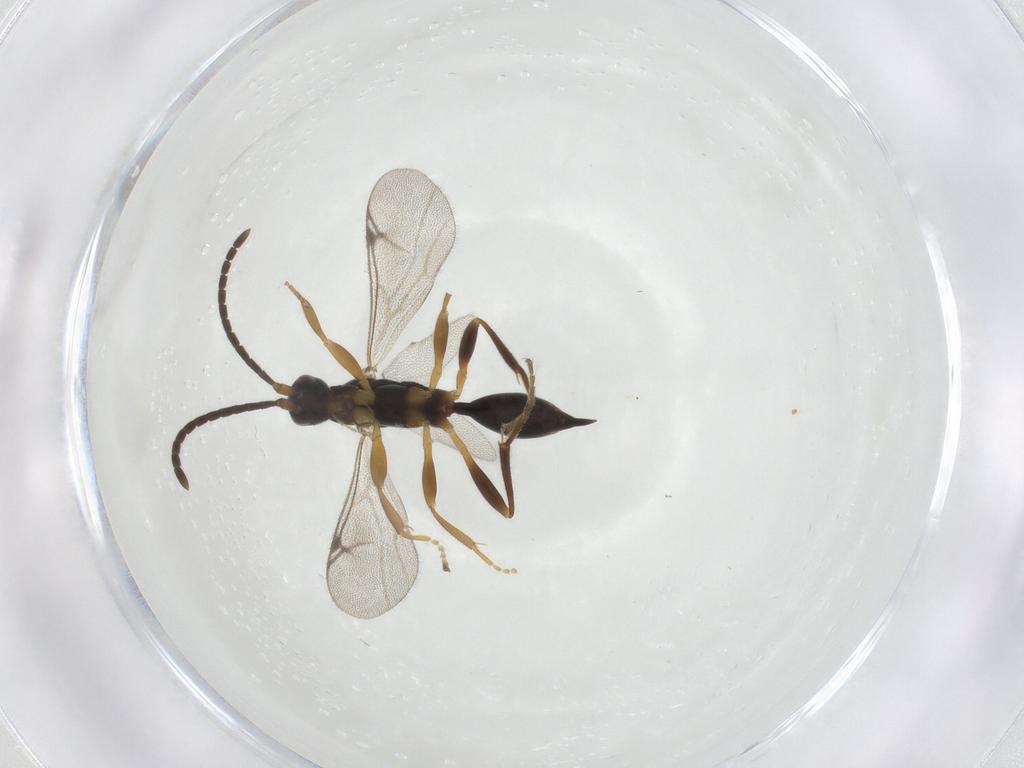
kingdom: Animalia
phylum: Arthropoda
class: Insecta
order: Hymenoptera
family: Proctotrupidae
